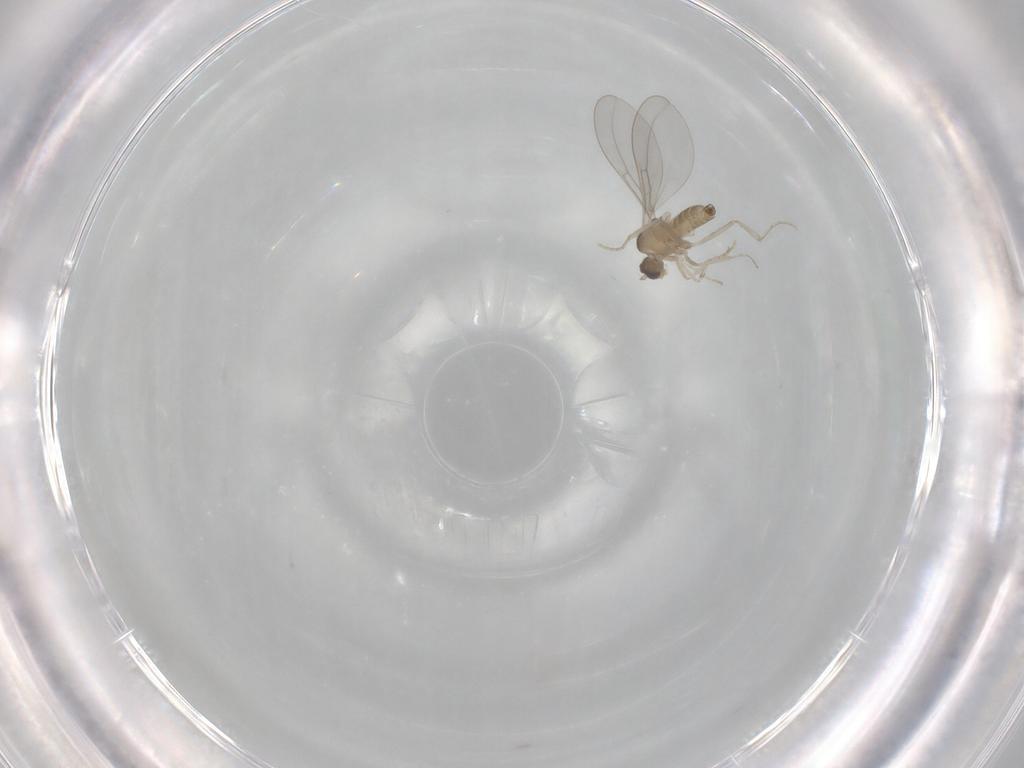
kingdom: Animalia
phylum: Arthropoda
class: Insecta
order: Diptera
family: Cecidomyiidae
